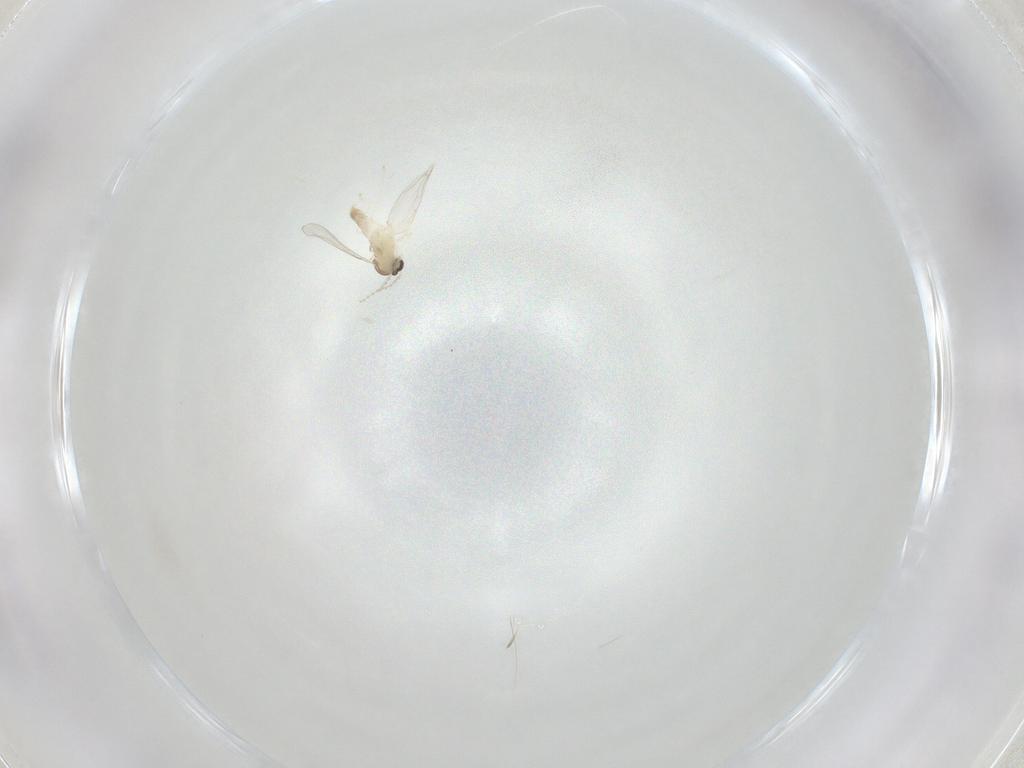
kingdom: Animalia
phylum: Arthropoda
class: Insecta
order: Diptera
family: Cecidomyiidae
